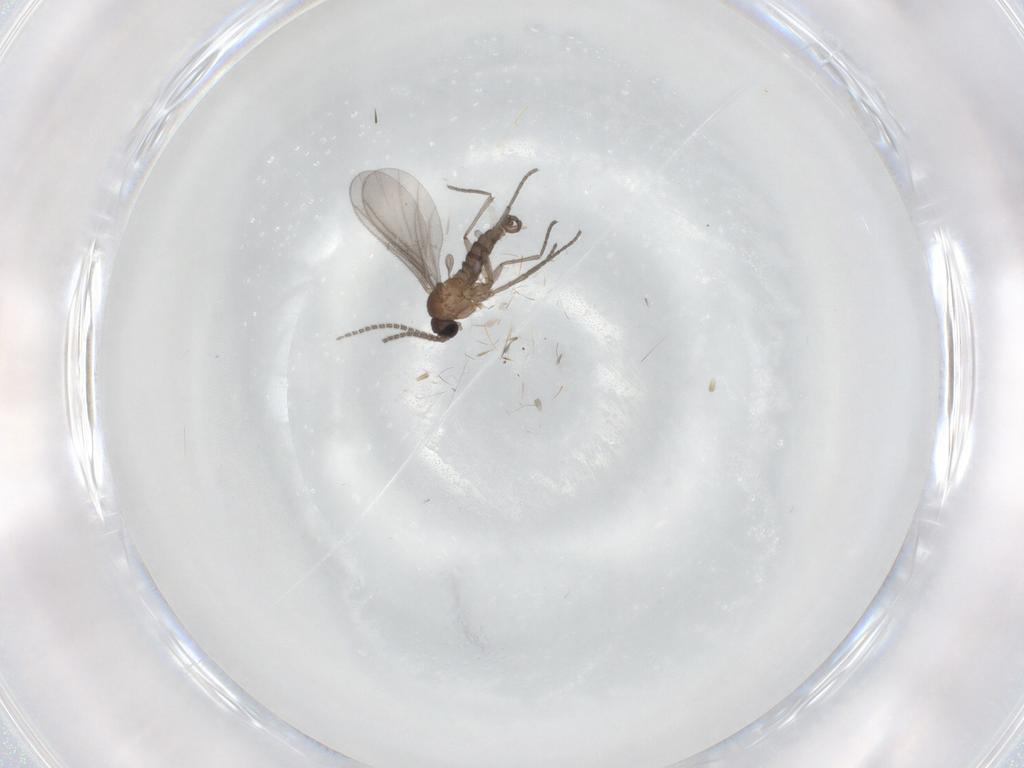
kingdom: Animalia
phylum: Arthropoda
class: Insecta
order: Diptera
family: Sciaridae
